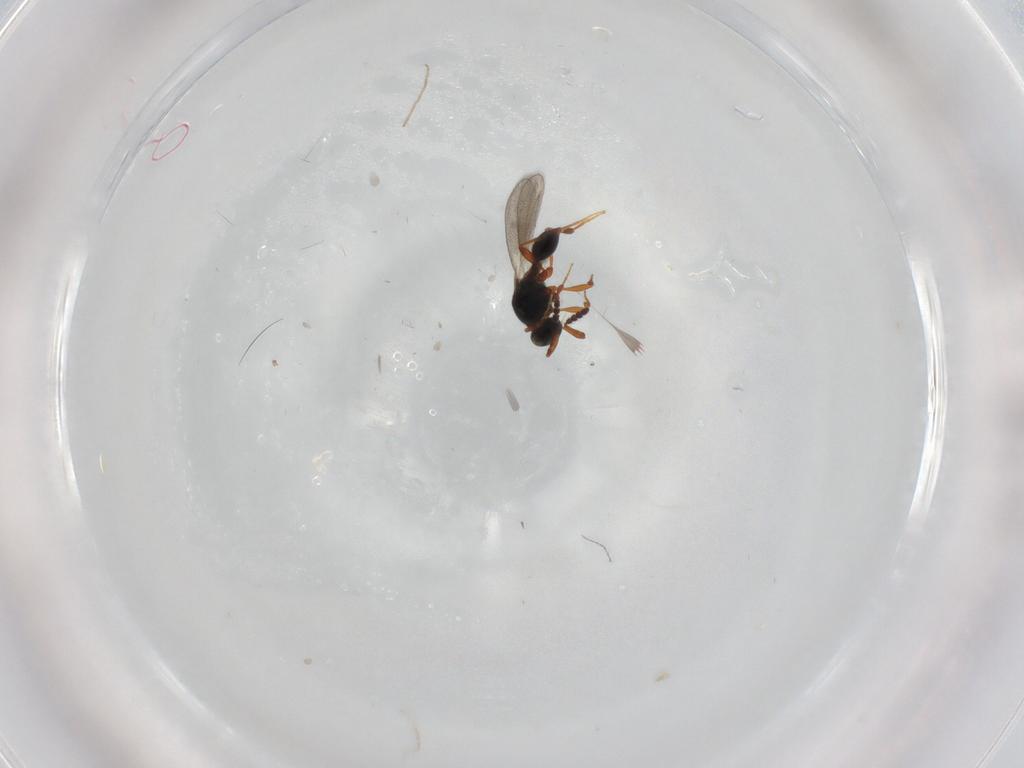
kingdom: Animalia
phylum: Arthropoda
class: Insecta
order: Hymenoptera
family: Platygastridae
